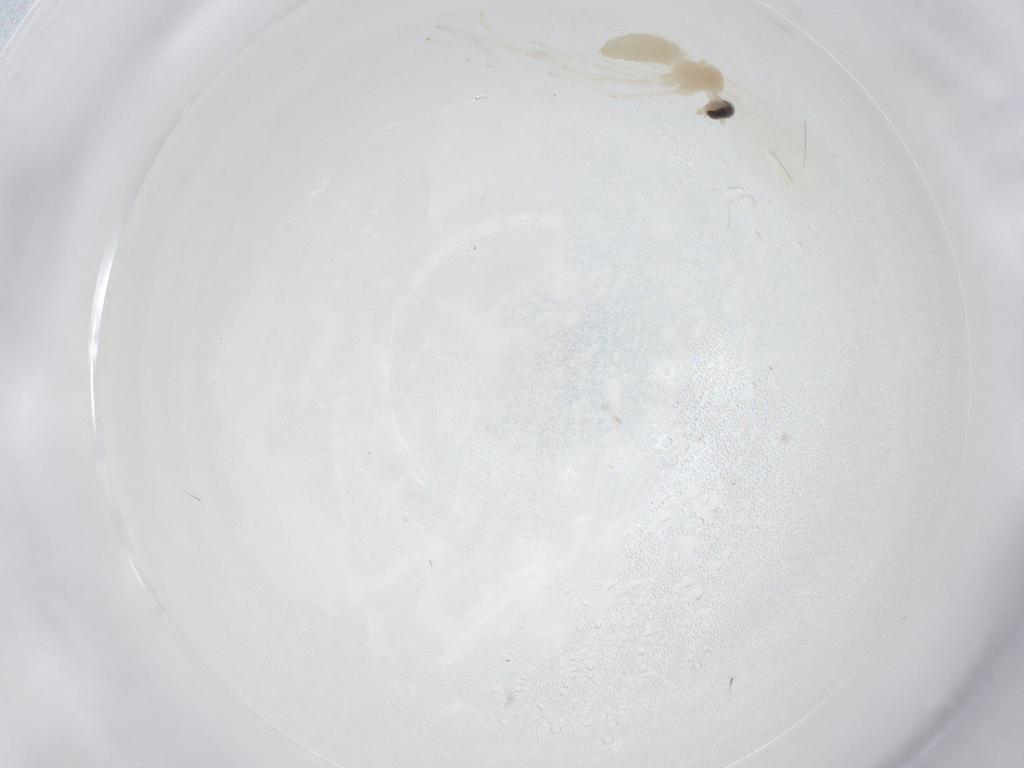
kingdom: Animalia
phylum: Arthropoda
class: Insecta
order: Diptera
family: Cecidomyiidae
